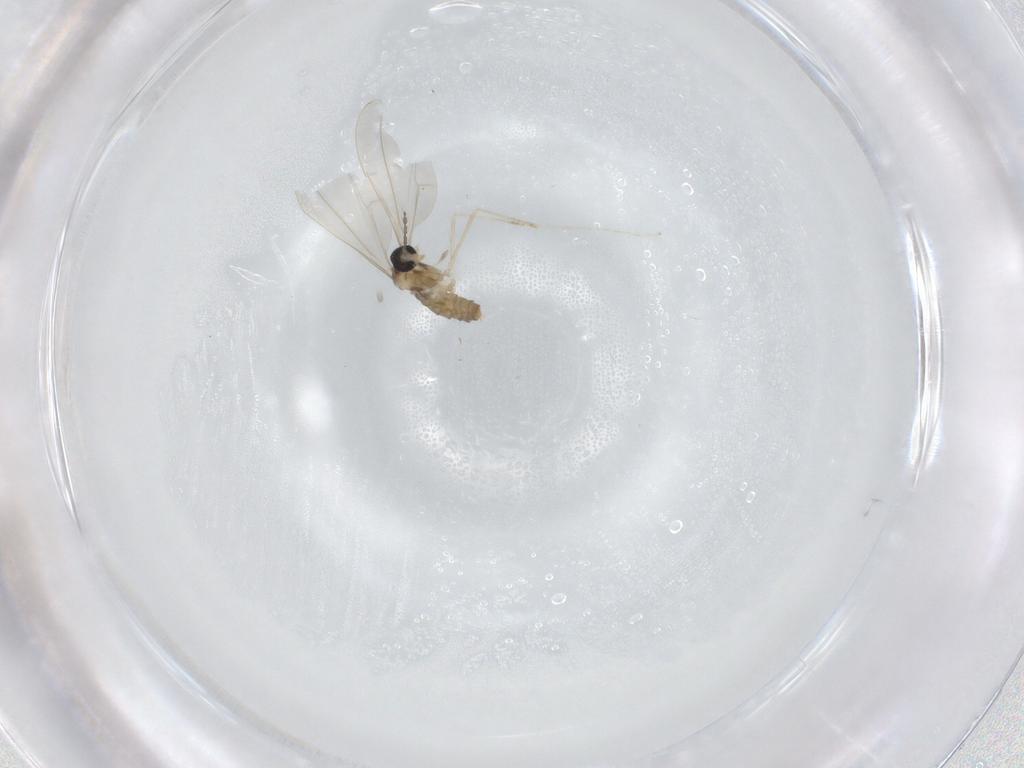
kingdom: Animalia
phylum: Arthropoda
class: Insecta
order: Diptera
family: Cecidomyiidae
